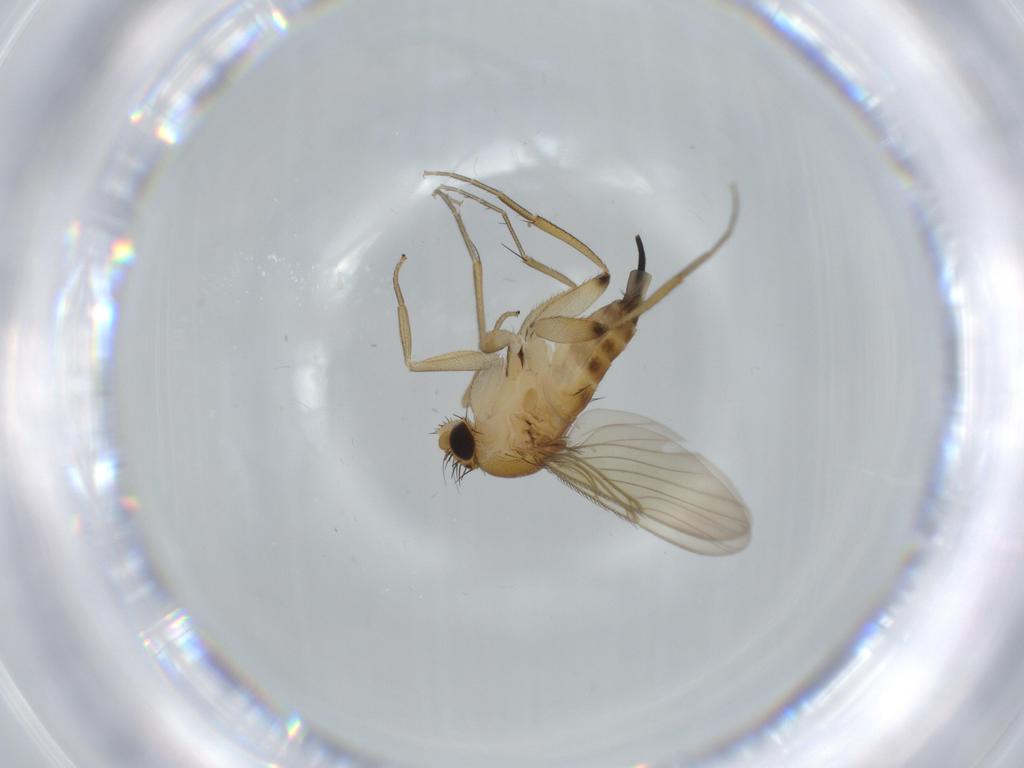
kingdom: Animalia
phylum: Arthropoda
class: Insecta
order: Diptera
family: Phoridae
